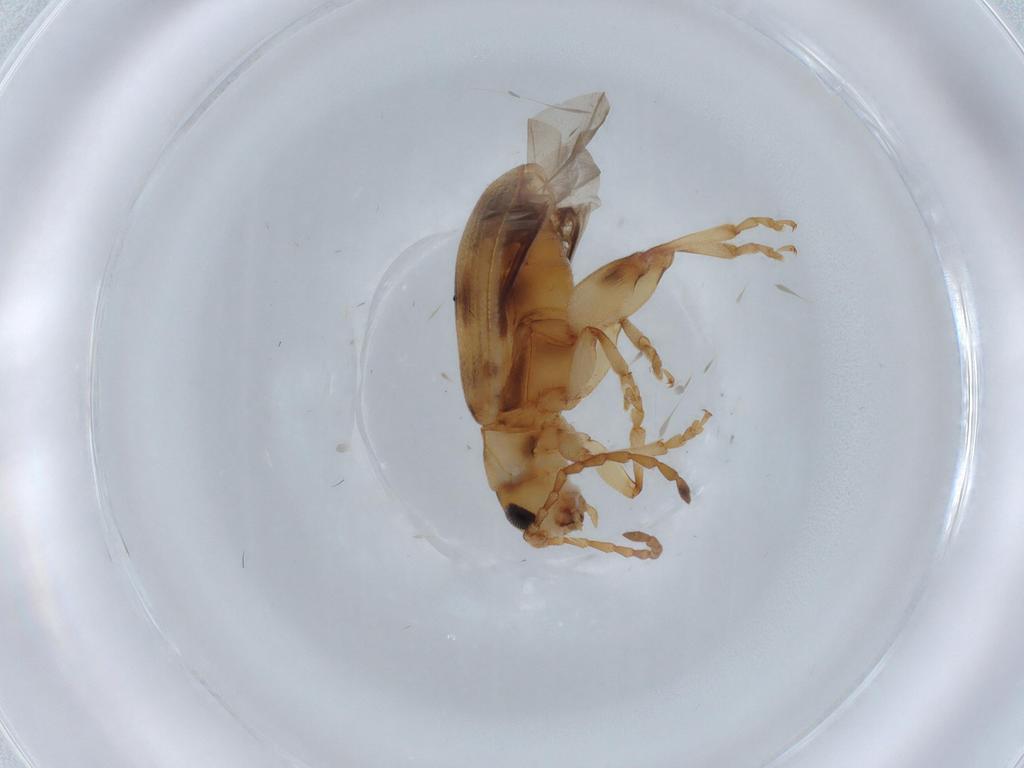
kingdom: Animalia
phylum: Arthropoda
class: Insecta
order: Coleoptera
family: Chrysomelidae
